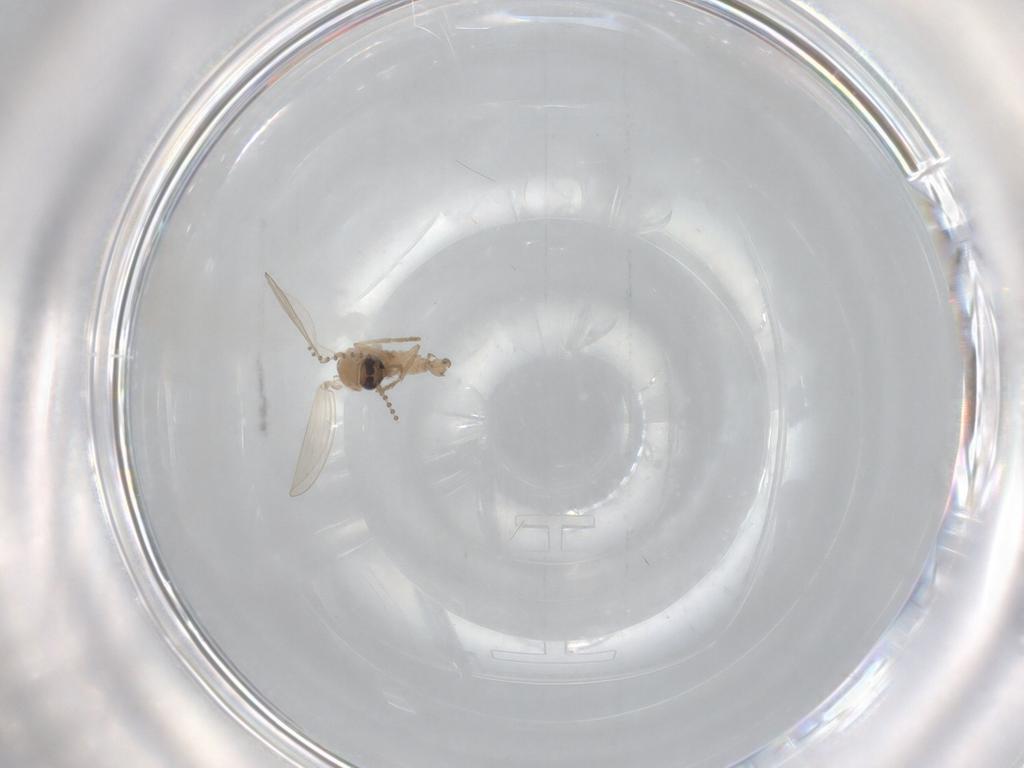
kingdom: Animalia
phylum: Arthropoda
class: Insecta
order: Diptera
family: Psychodidae
